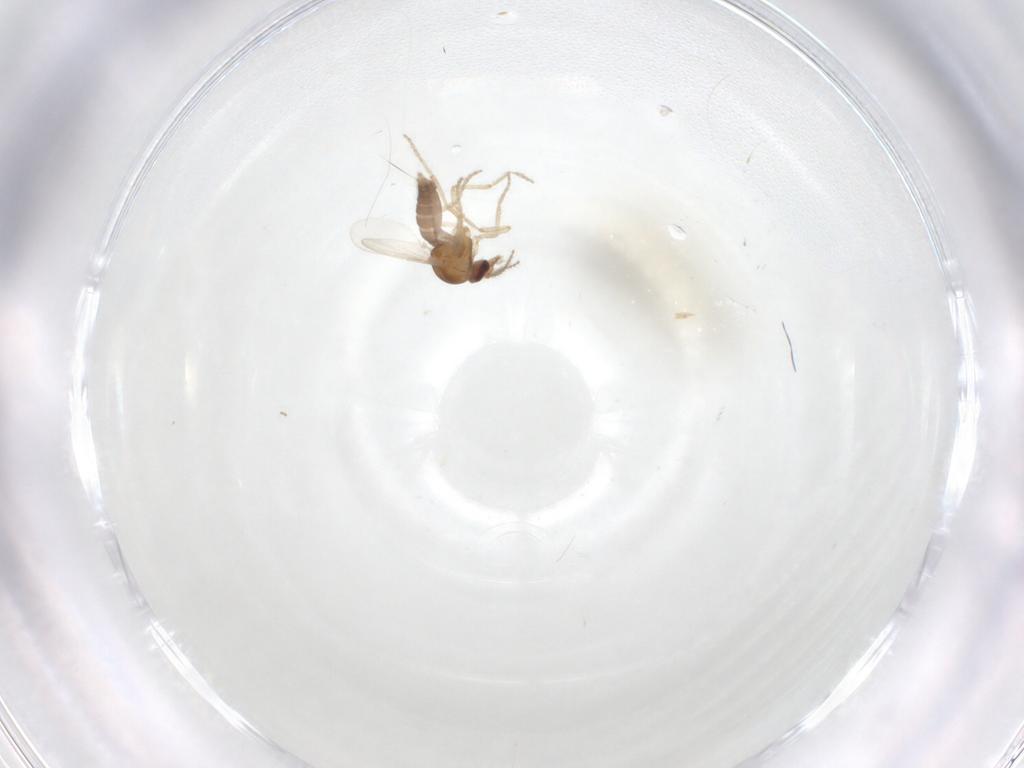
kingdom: Animalia
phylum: Arthropoda
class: Insecta
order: Diptera
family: Ceratopogonidae
